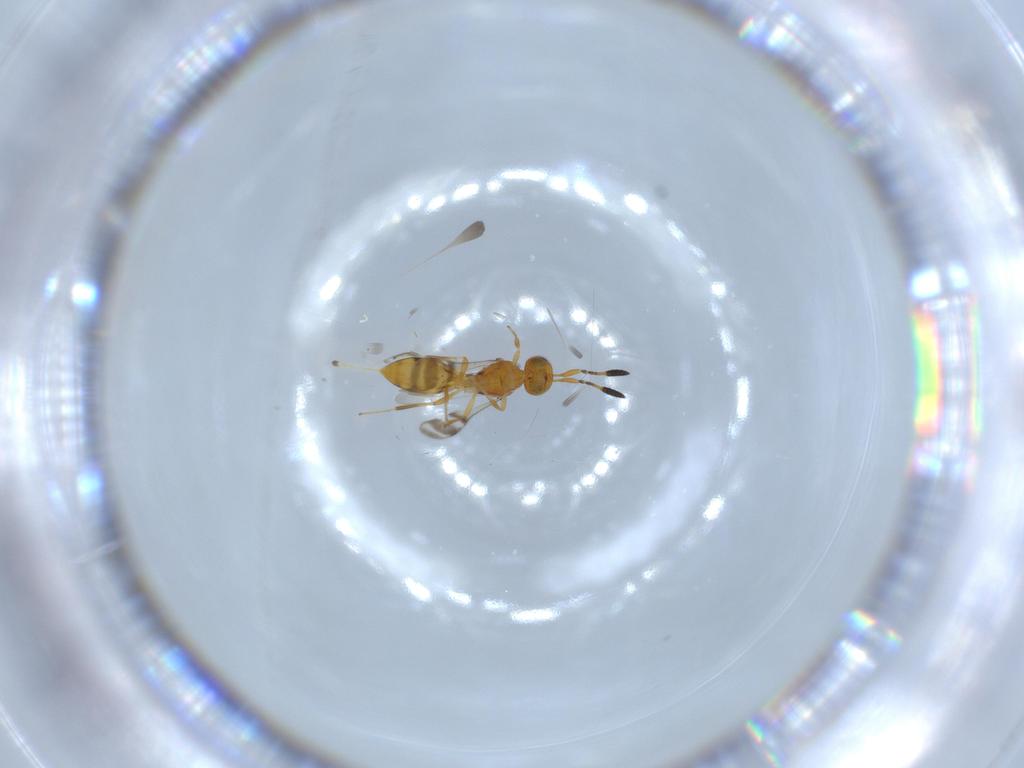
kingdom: Animalia
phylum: Arthropoda
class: Insecta
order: Hymenoptera
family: Scelionidae
